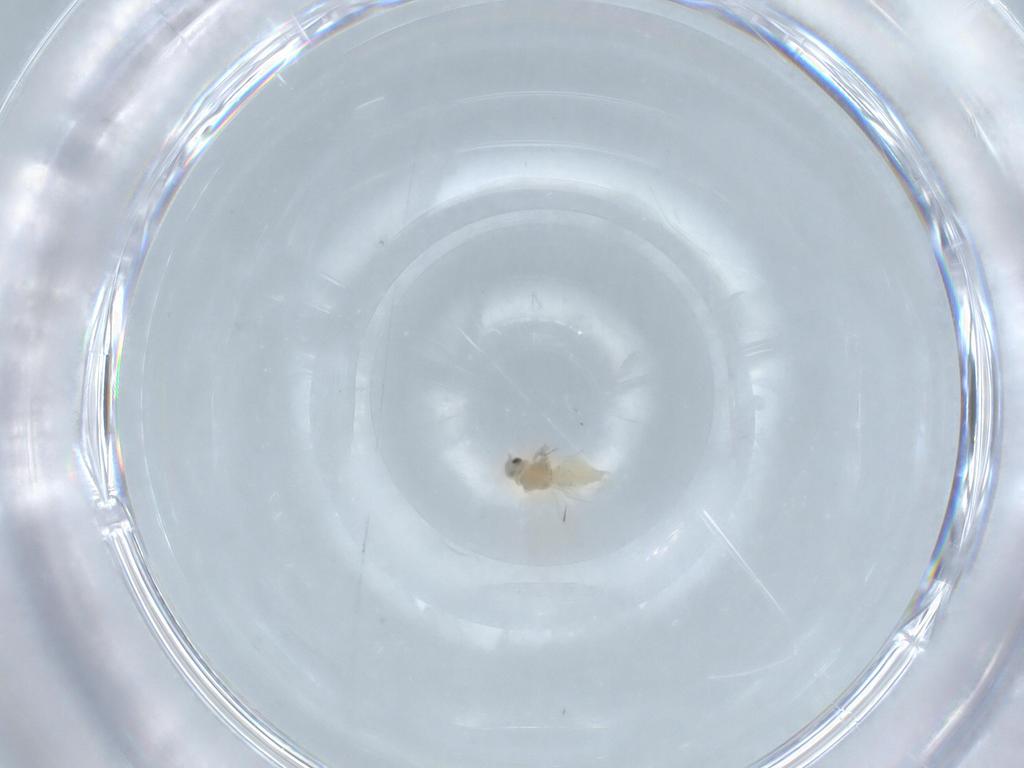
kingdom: Animalia
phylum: Arthropoda
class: Insecta
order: Hemiptera
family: Aleyrodidae
